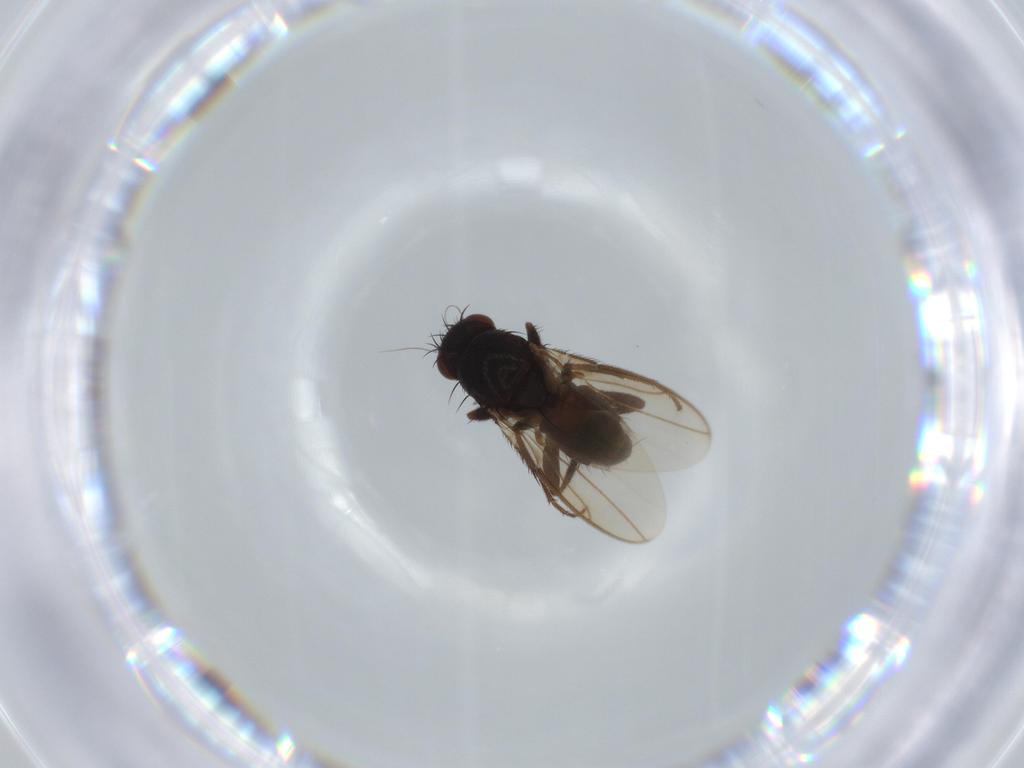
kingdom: Animalia
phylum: Arthropoda
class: Insecta
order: Diptera
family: Sphaeroceridae
